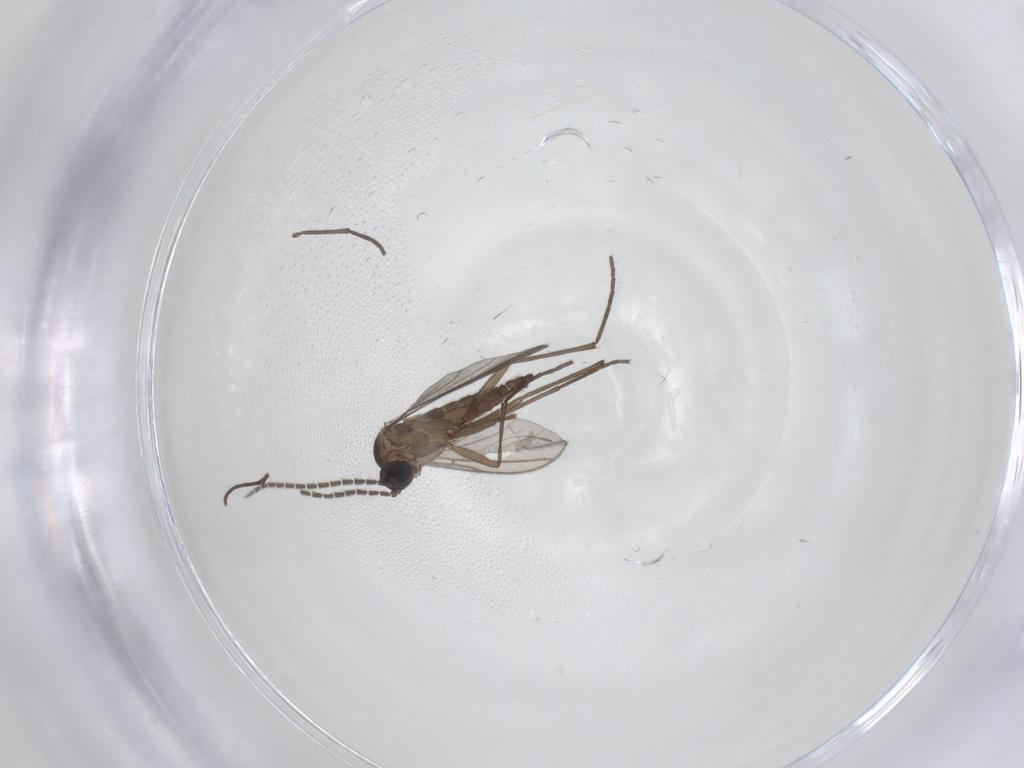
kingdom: Animalia
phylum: Arthropoda
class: Insecta
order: Diptera
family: Sciaridae
